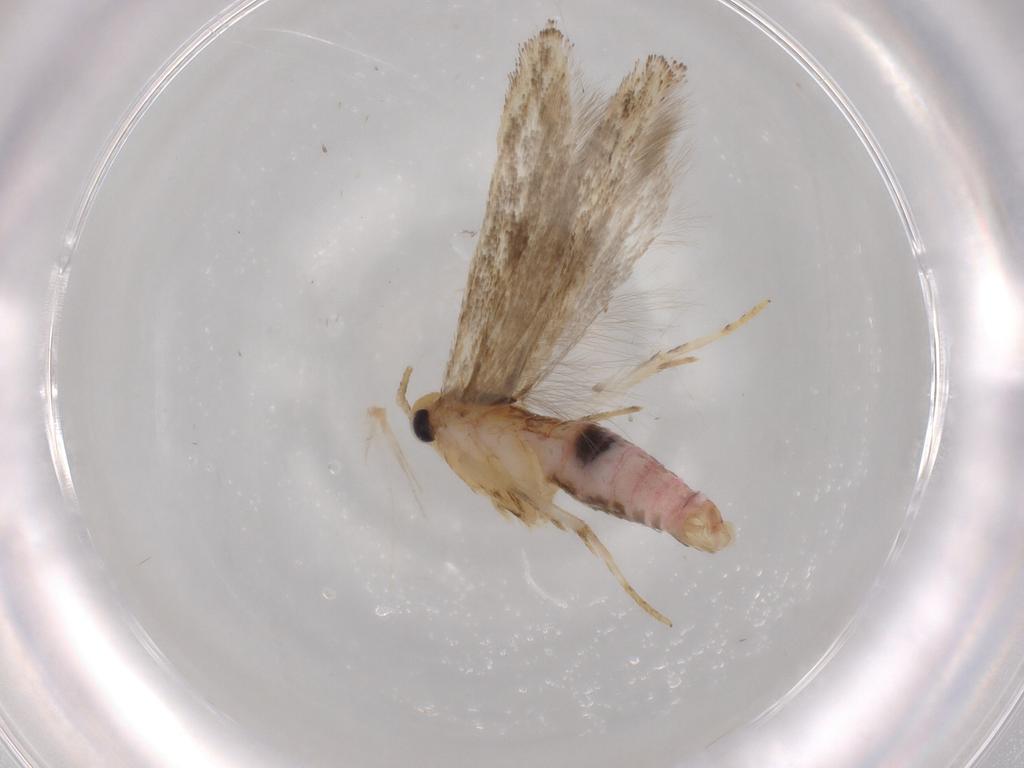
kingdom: Animalia
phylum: Arthropoda
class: Insecta
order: Lepidoptera
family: Gelechiidae
